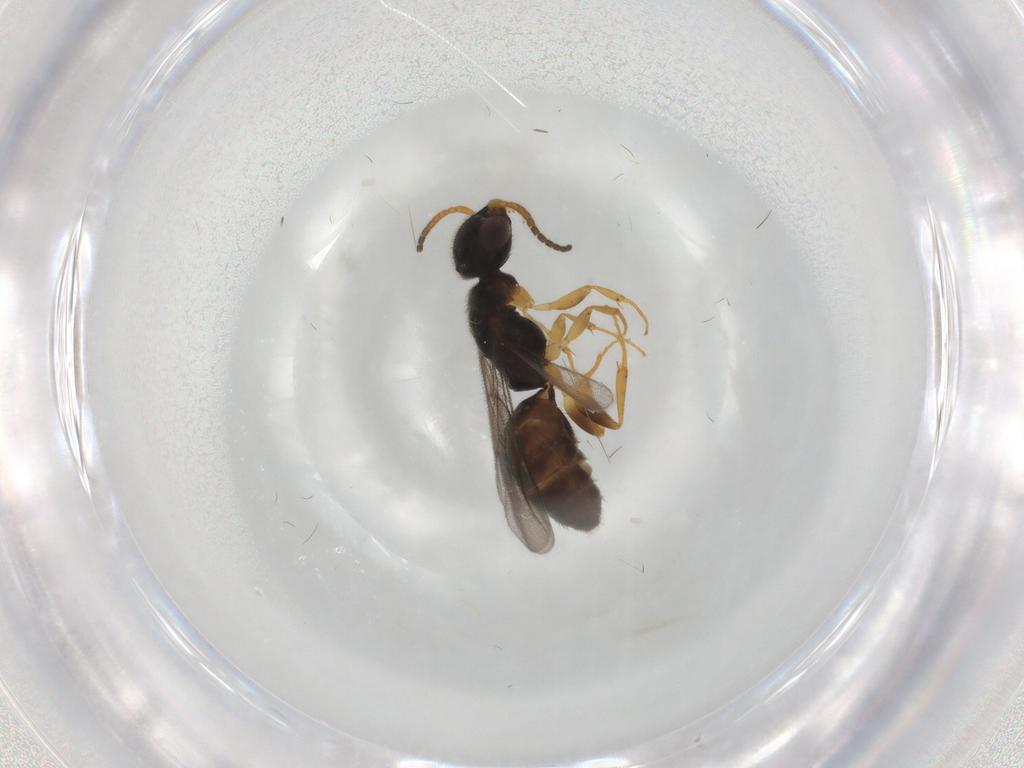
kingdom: Animalia
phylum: Arthropoda
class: Insecta
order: Hymenoptera
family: Bethylidae
